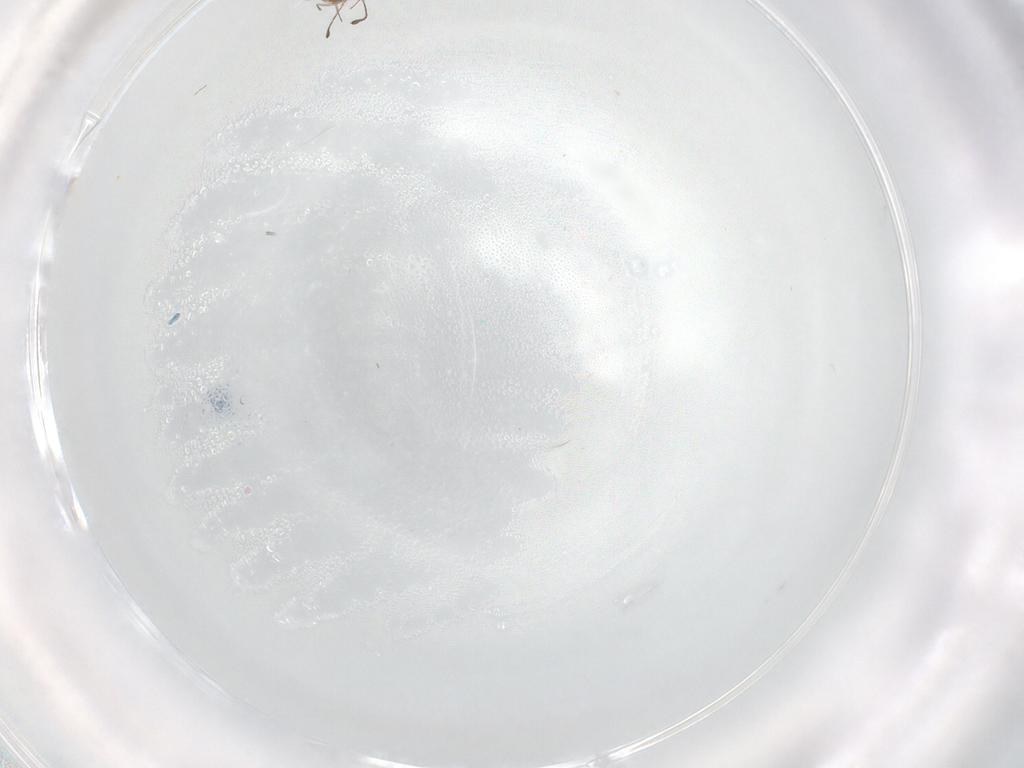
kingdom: Animalia
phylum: Arthropoda
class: Insecta
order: Hymenoptera
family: Mymaridae
